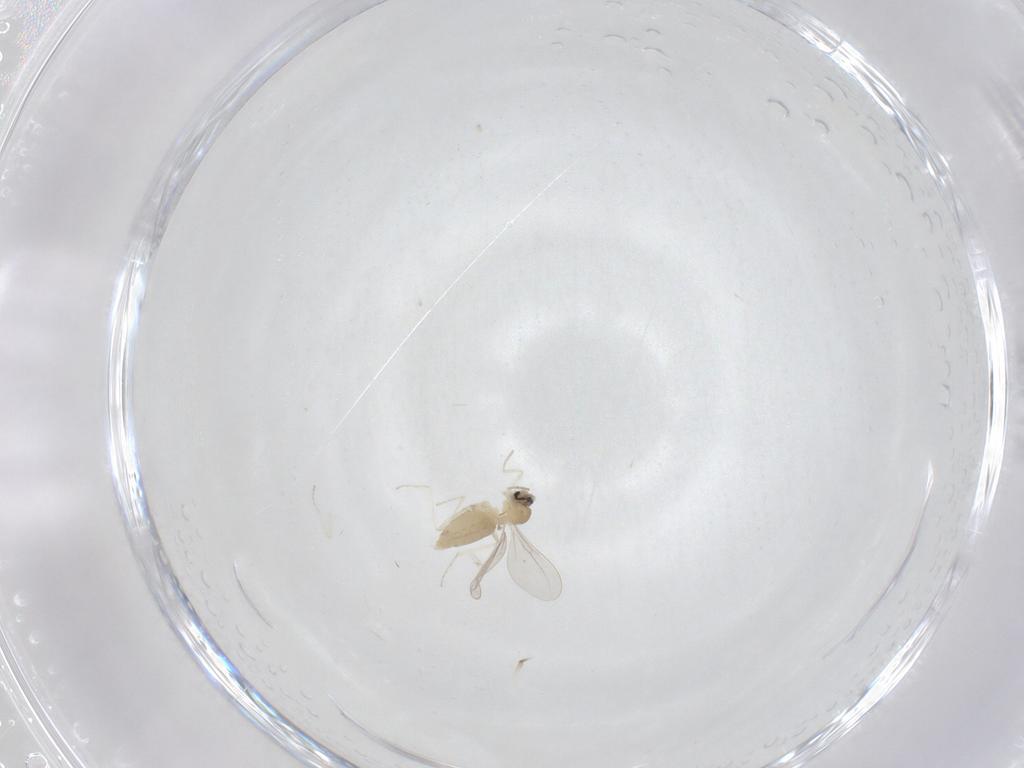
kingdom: Animalia
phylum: Arthropoda
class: Insecta
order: Diptera
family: Cecidomyiidae
